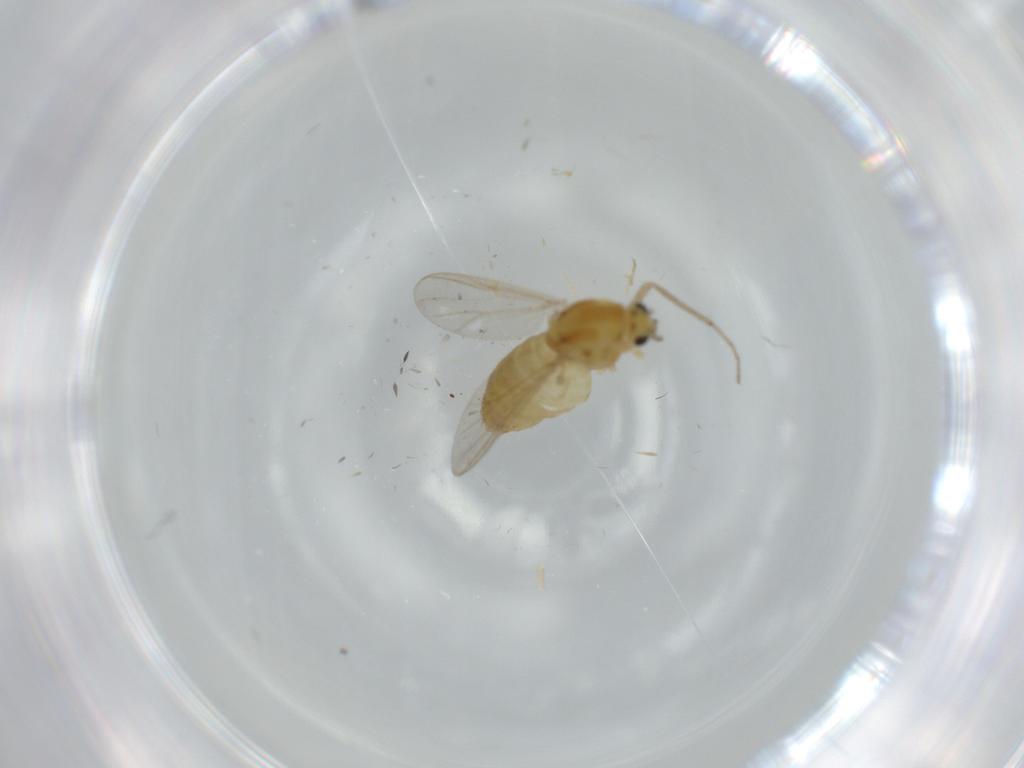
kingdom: Animalia
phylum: Arthropoda
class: Insecta
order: Diptera
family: Chironomidae
